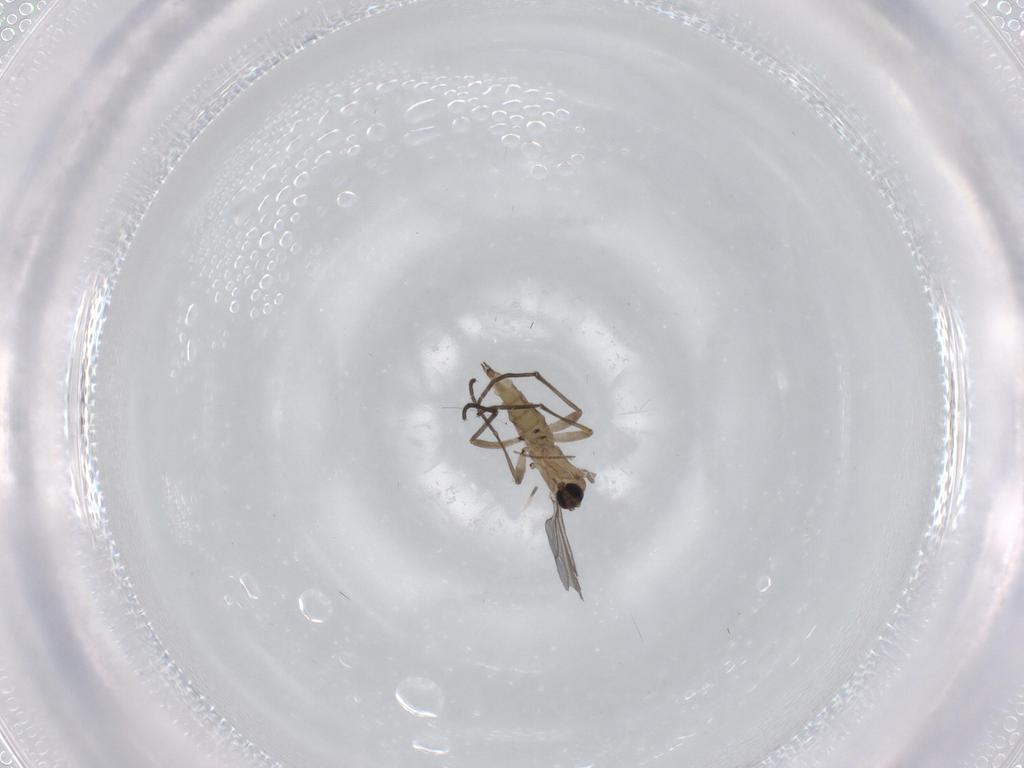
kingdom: Animalia
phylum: Arthropoda
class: Insecta
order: Diptera
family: Chironomidae
